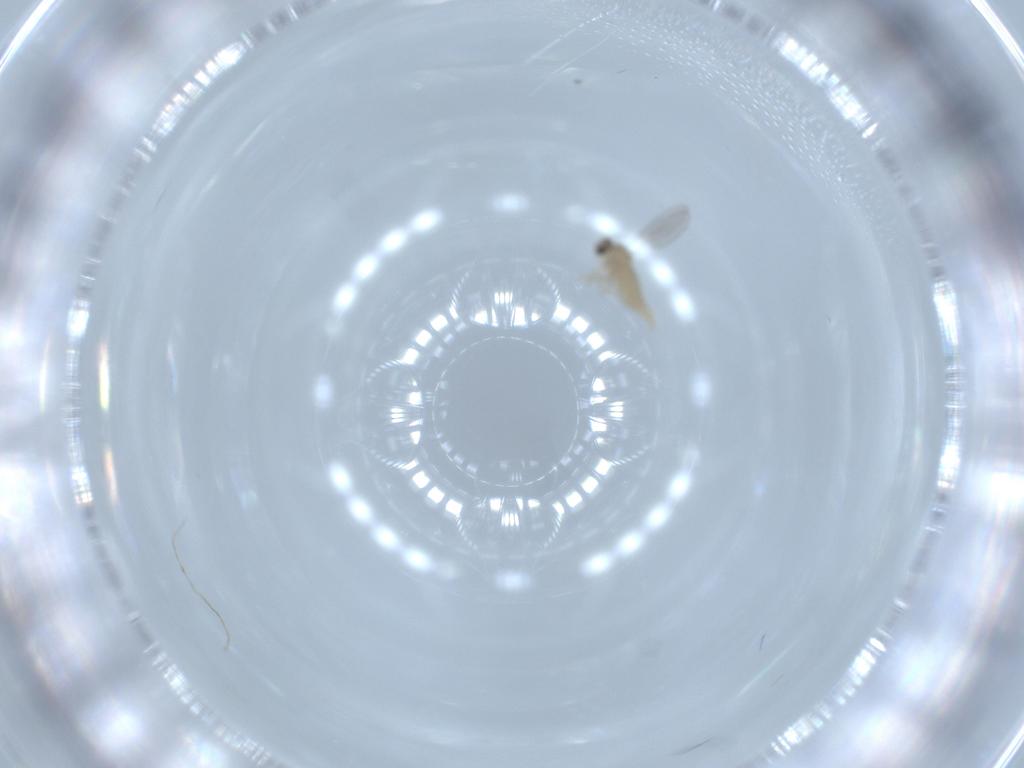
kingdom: Animalia
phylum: Arthropoda
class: Insecta
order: Diptera
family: Cecidomyiidae
